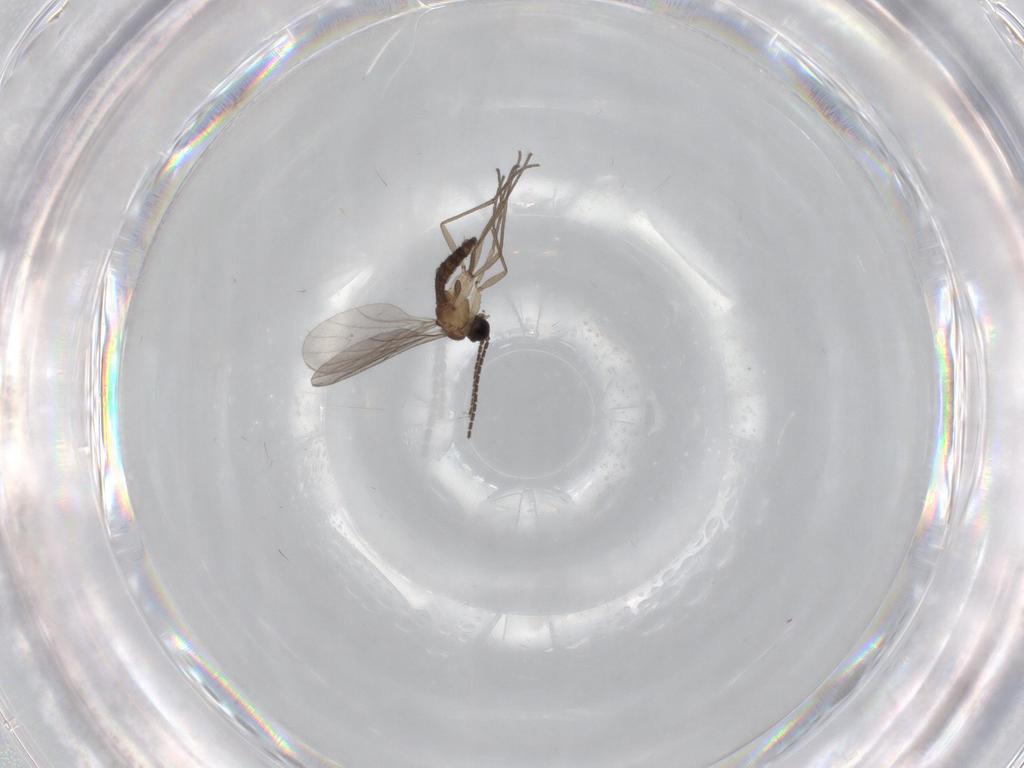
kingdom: Animalia
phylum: Arthropoda
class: Insecta
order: Diptera
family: Sciaridae
